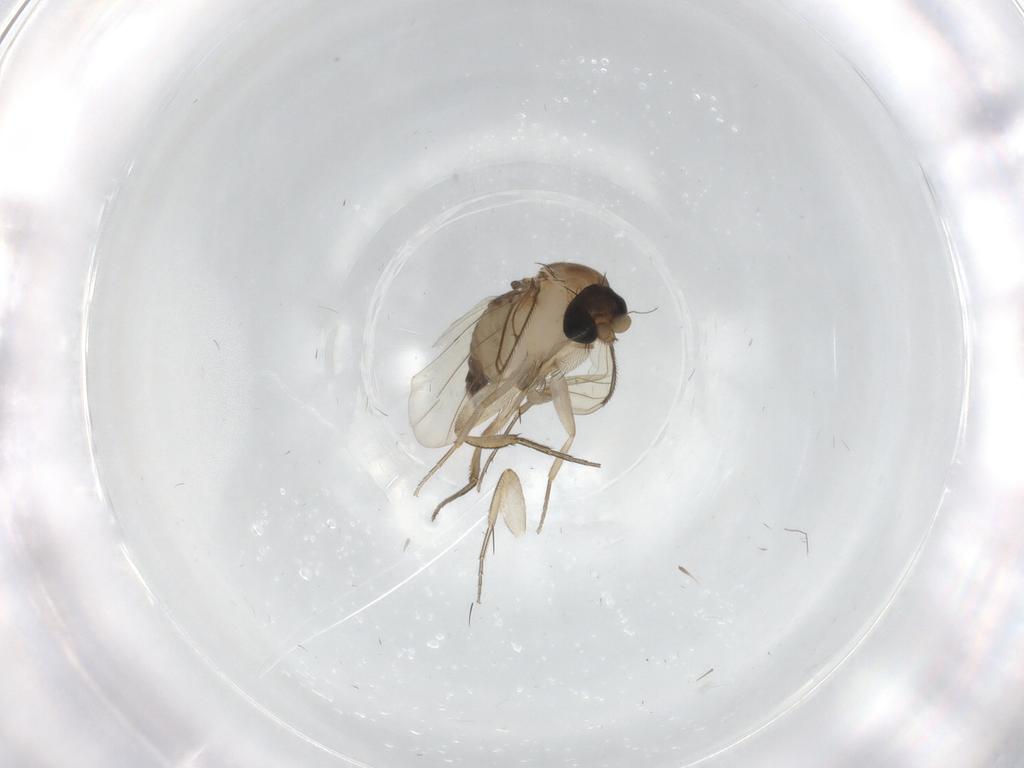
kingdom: Animalia
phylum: Arthropoda
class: Insecta
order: Diptera
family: Phoridae
